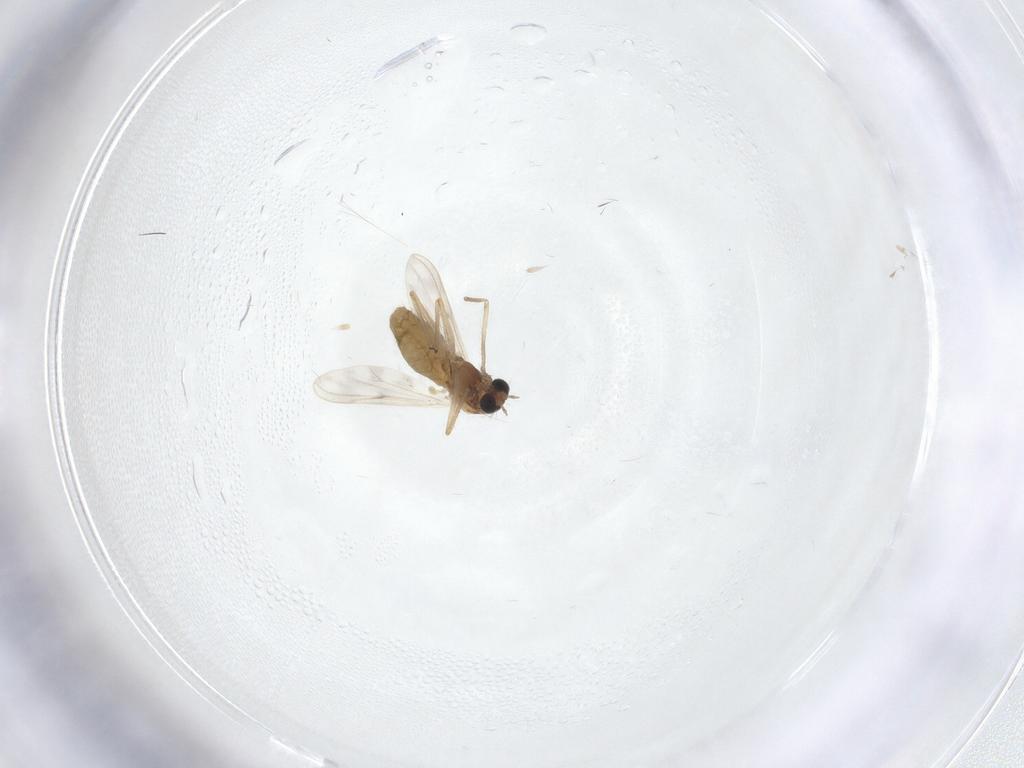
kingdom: Animalia
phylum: Arthropoda
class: Insecta
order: Diptera
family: Chironomidae
